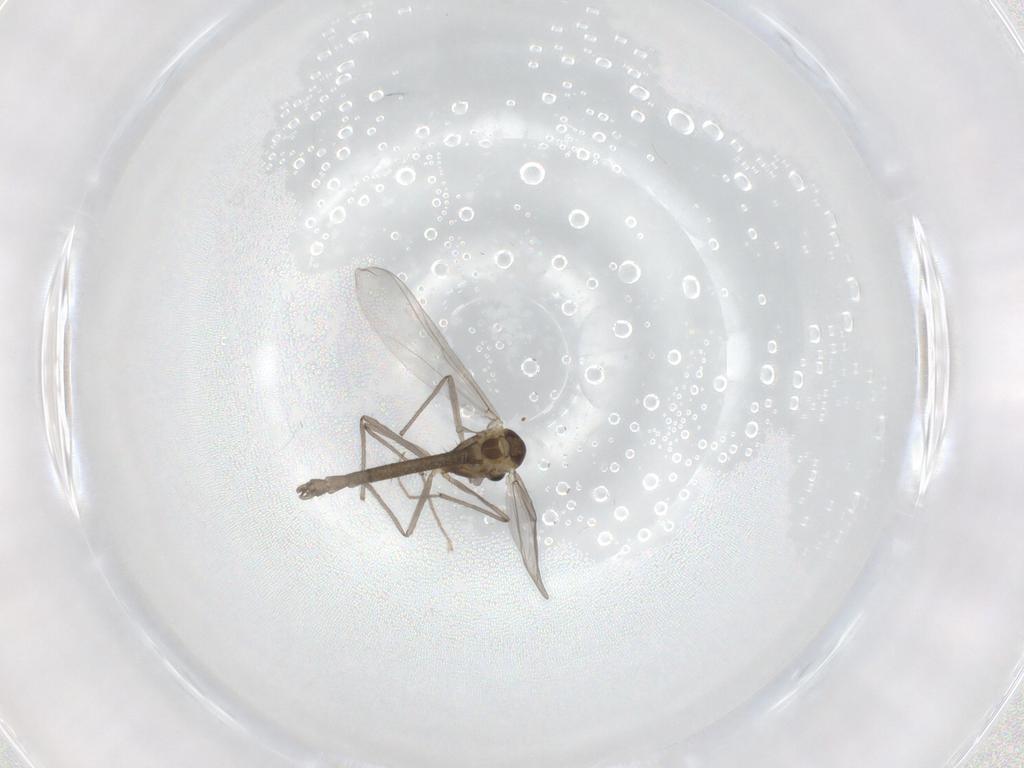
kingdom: Animalia
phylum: Arthropoda
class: Insecta
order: Diptera
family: Chironomidae
